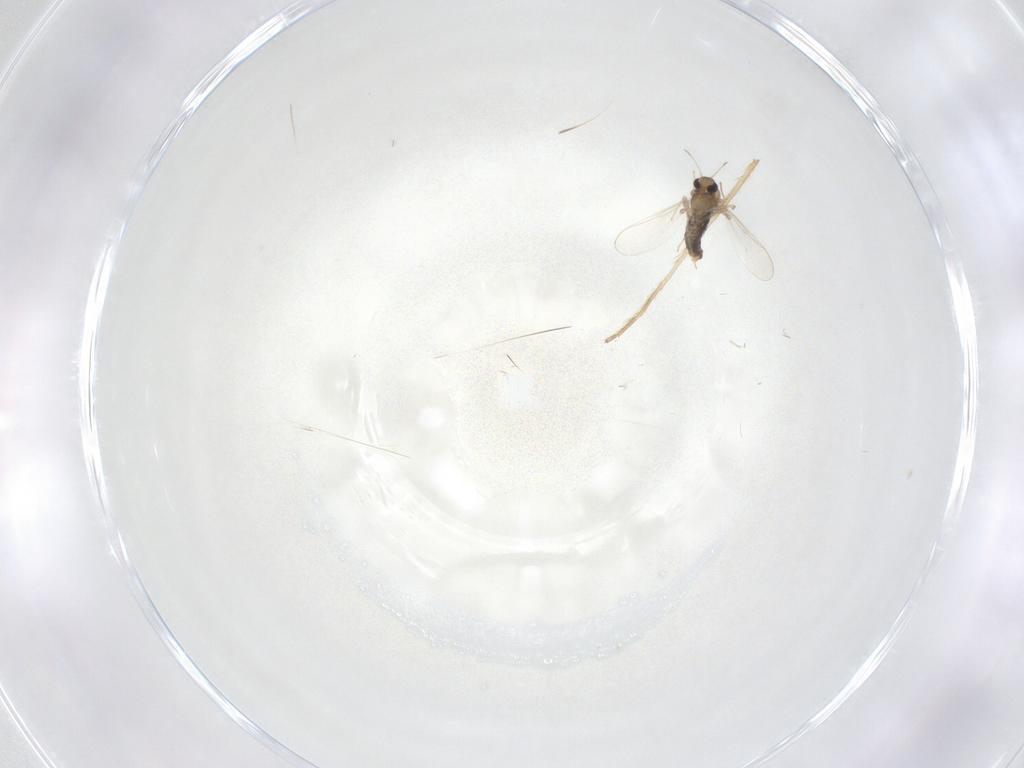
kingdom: Animalia
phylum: Arthropoda
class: Insecta
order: Diptera
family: Chironomidae
